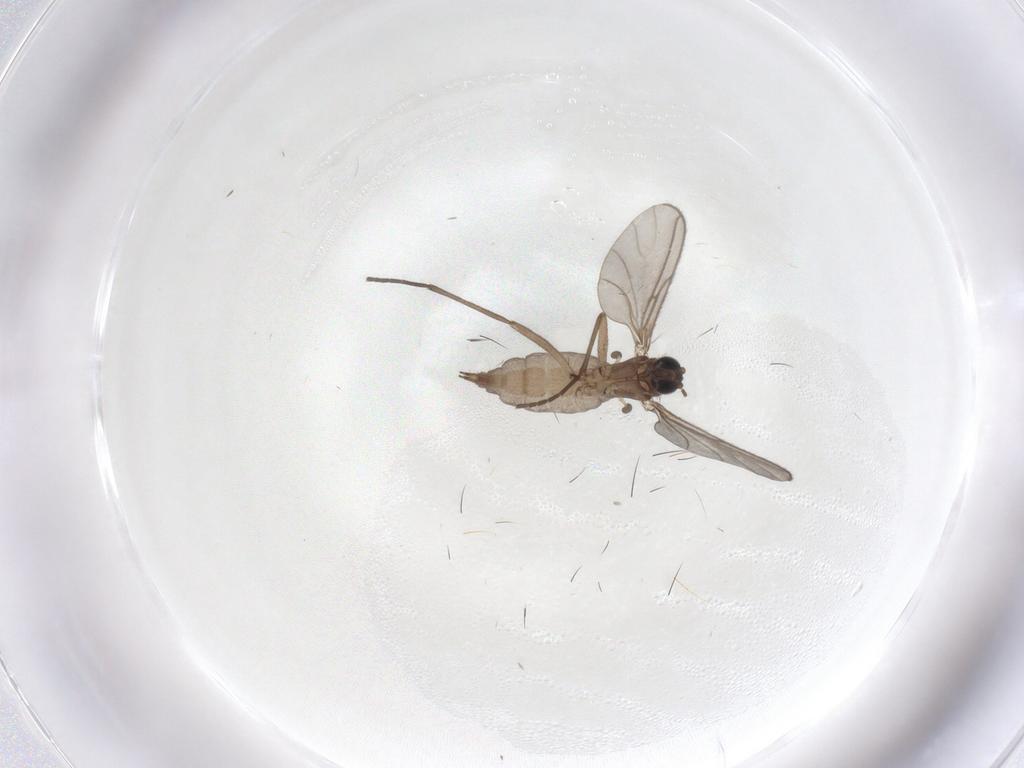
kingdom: Animalia
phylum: Arthropoda
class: Insecta
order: Diptera
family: Sciaridae
